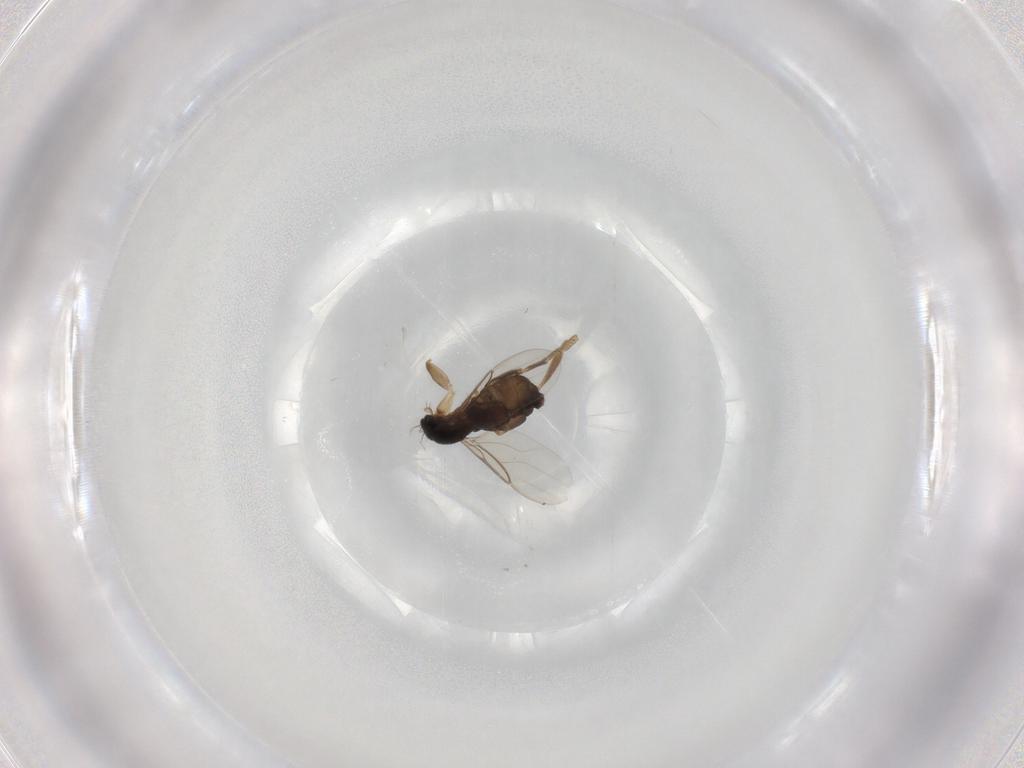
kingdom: Animalia
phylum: Arthropoda
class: Insecta
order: Diptera
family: Phoridae
